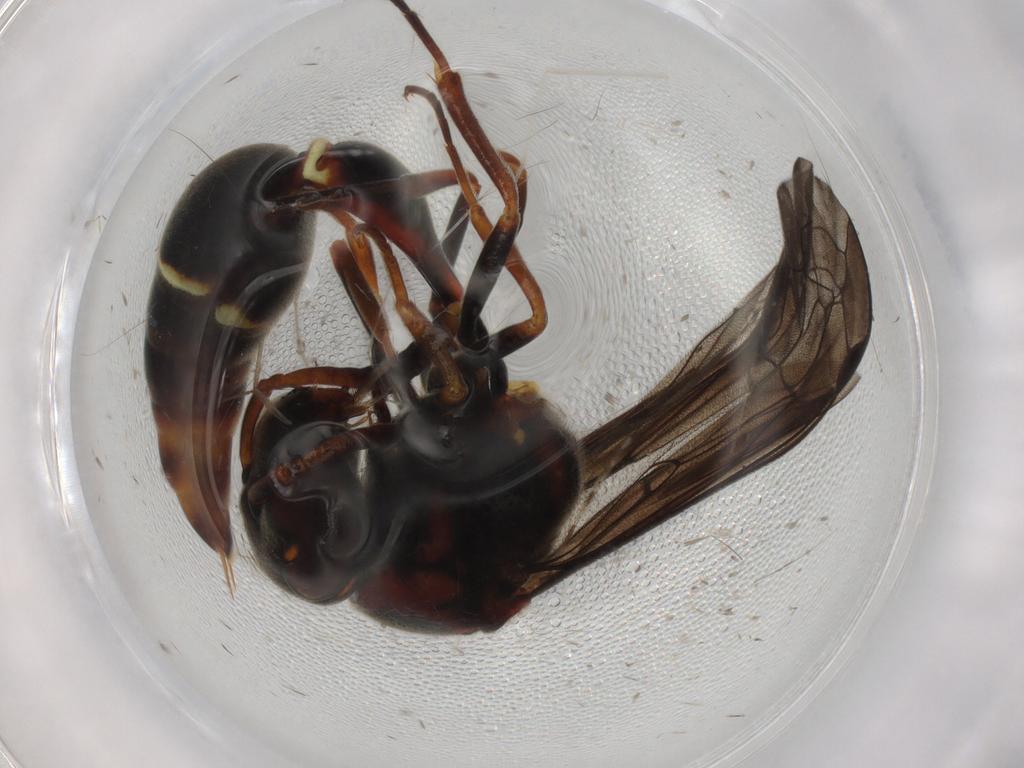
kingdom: Animalia
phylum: Arthropoda
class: Insecta
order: Hymenoptera
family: Vespidae
